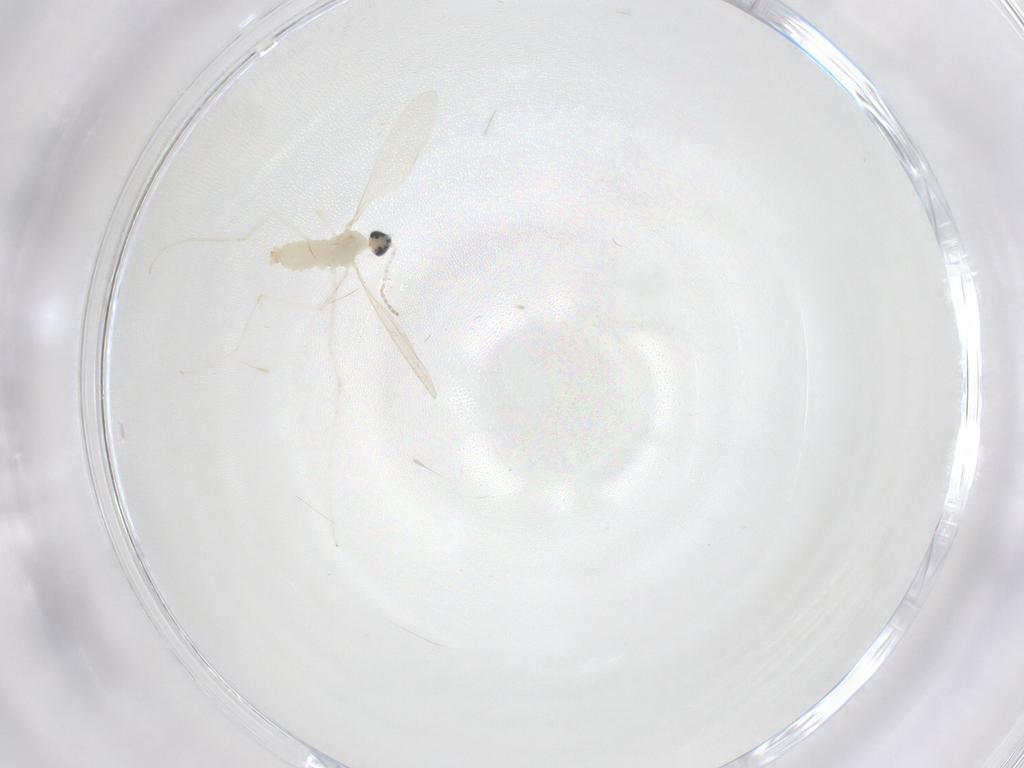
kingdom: Animalia
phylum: Arthropoda
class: Insecta
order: Diptera
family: Cecidomyiidae
